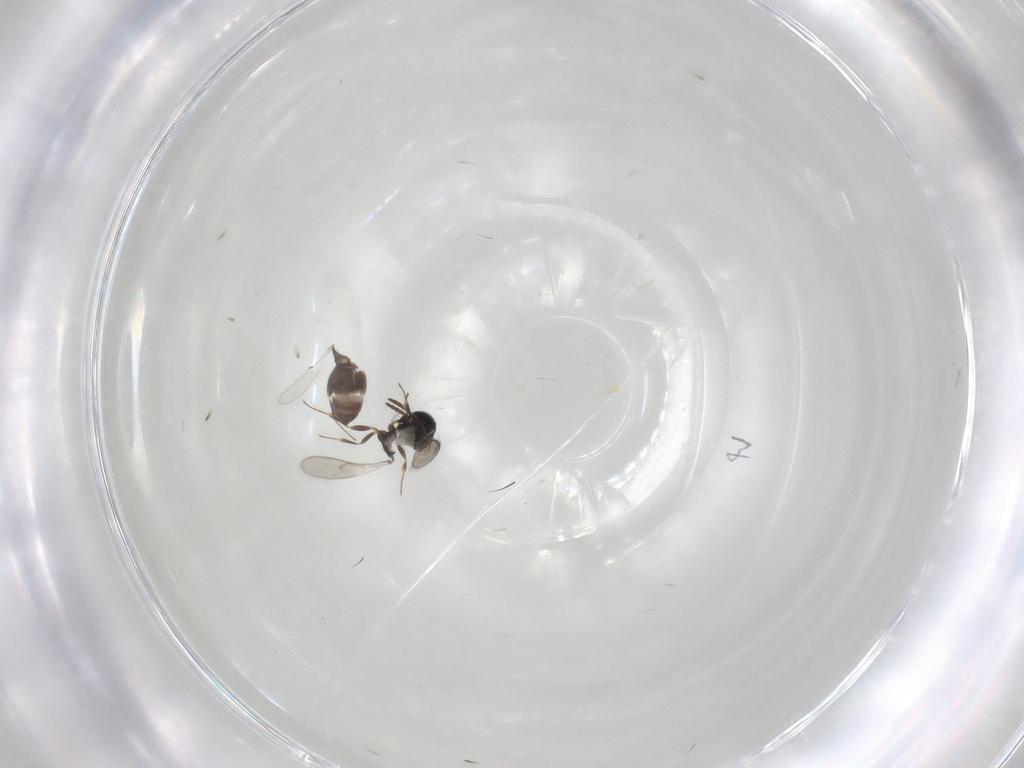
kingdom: Animalia
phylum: Arthropoda
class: Insecta
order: Hymenoptera
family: Scelionidae
